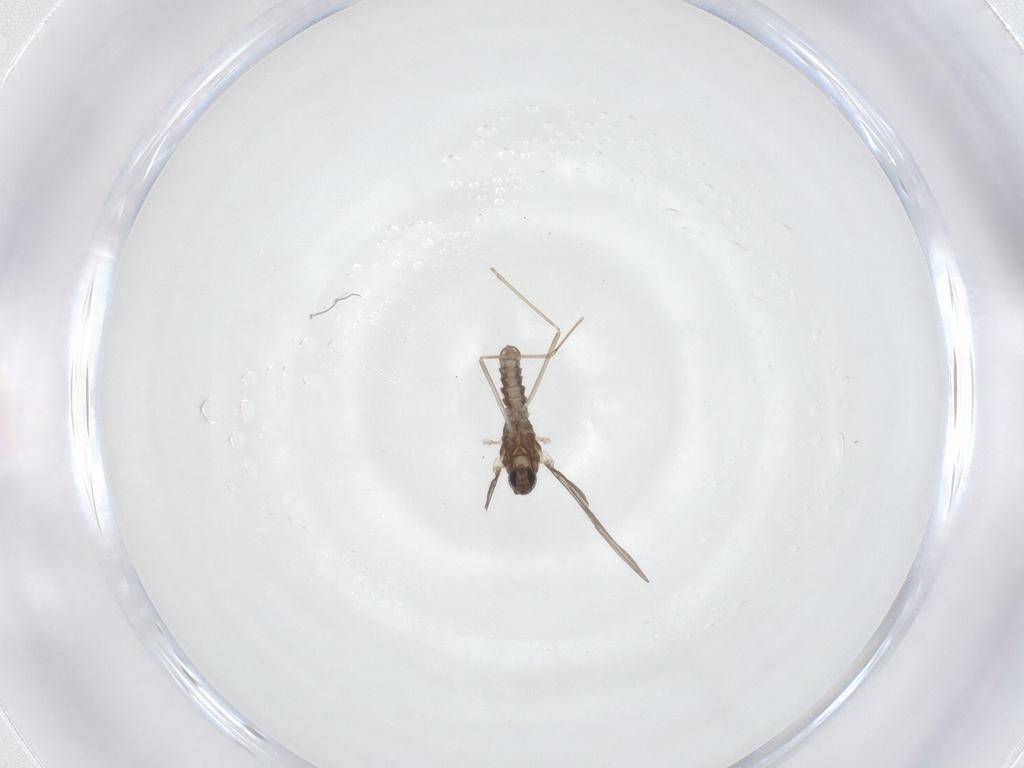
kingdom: Animalia
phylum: Arthropoda
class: Insecta
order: Diptera
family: Cecidomyiidae
